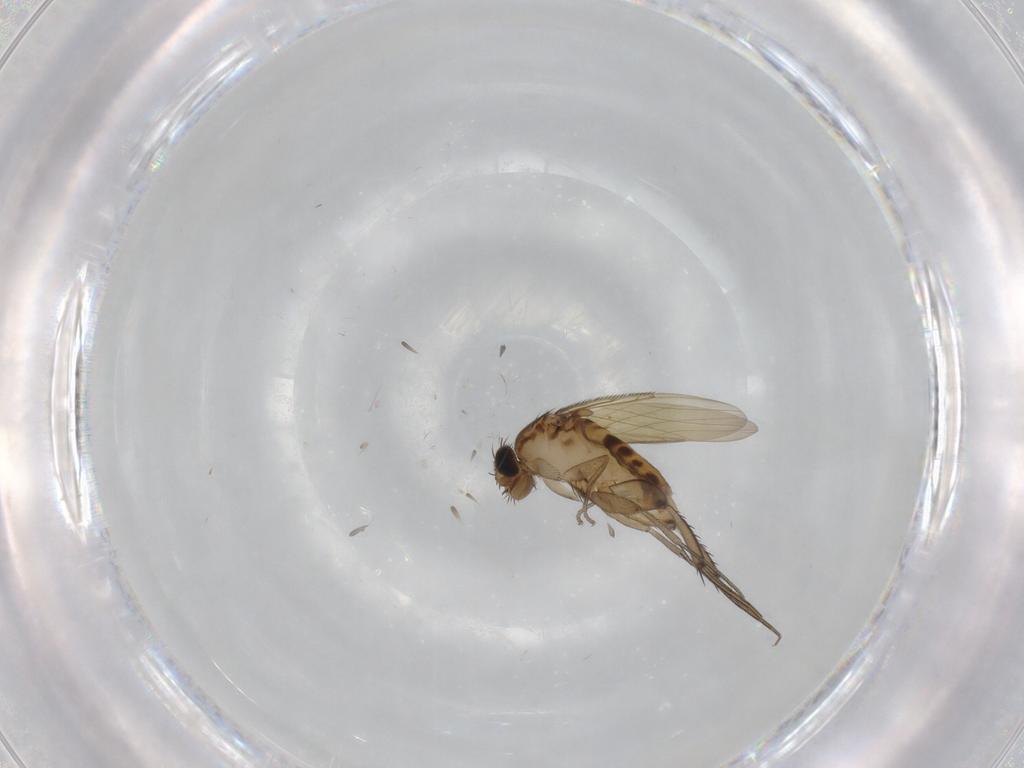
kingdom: Animalia
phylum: Arthropoda
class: Insecta
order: Diptera
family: Phoridae
